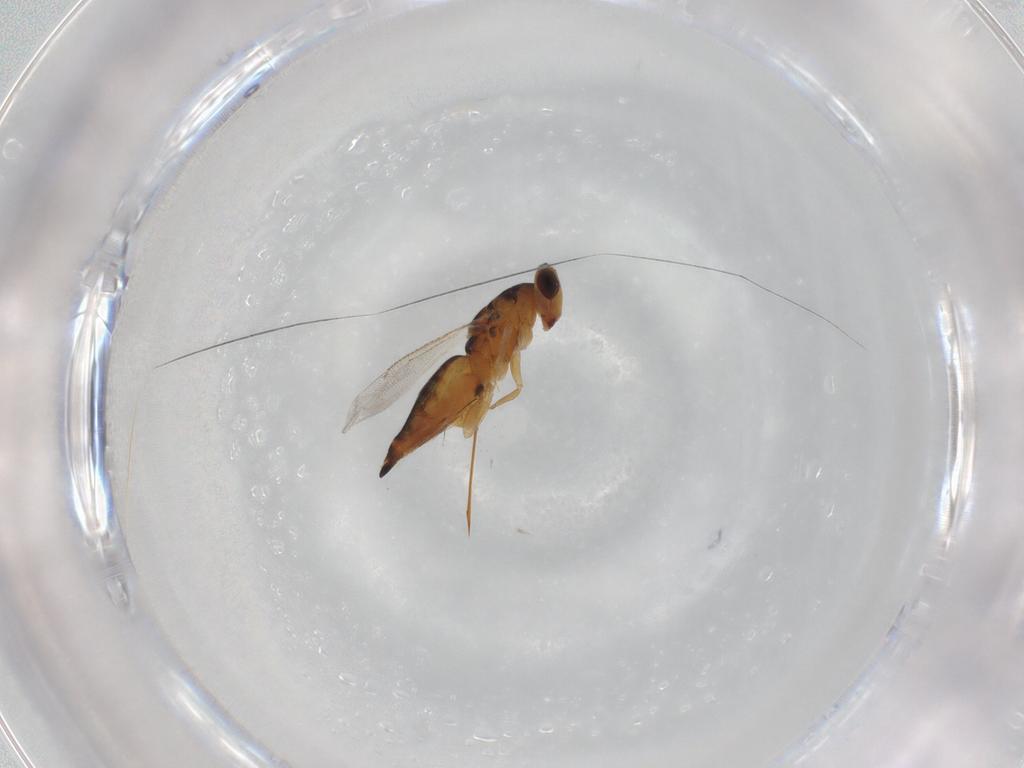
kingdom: Animalia
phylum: Arthropoda
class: Insecta
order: Hymenoptera
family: Eulophidae
